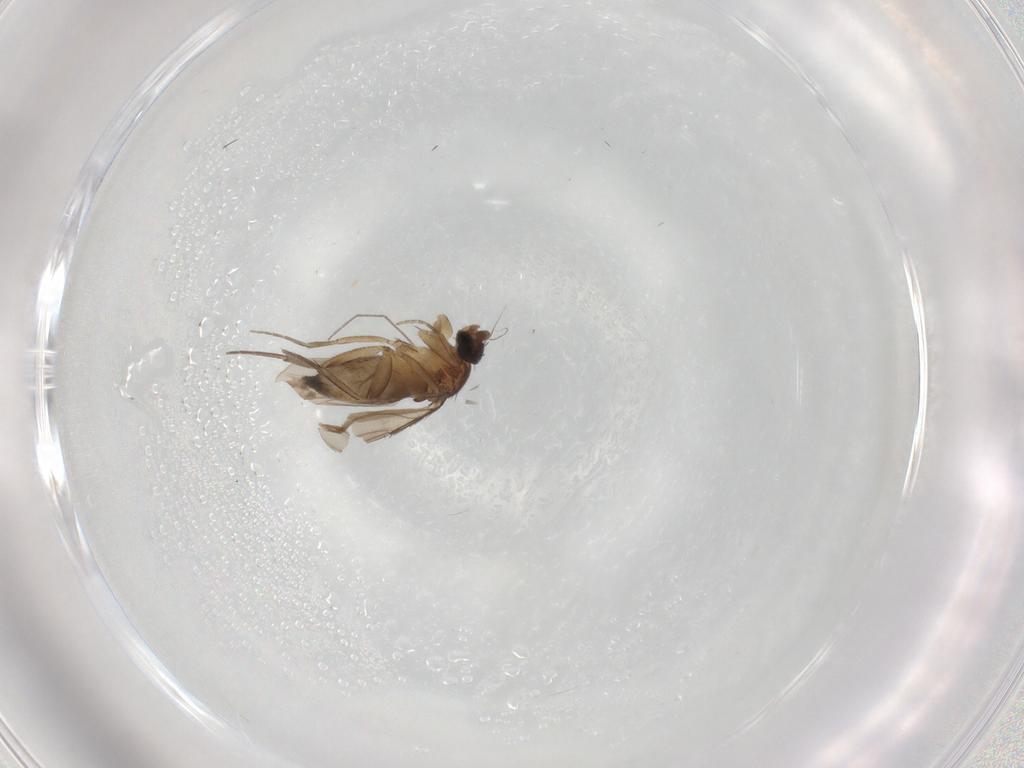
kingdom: Animalia
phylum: Arthropoda
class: Insecta
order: Diptera
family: Phoridae
